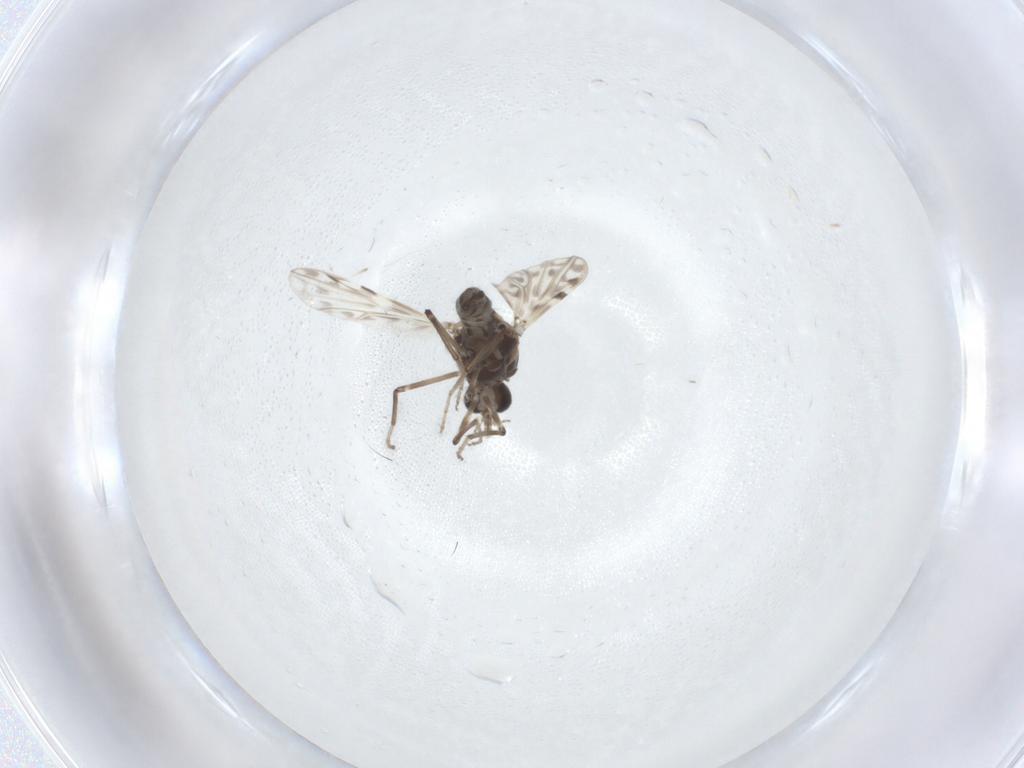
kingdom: Animalia
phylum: Arthropoda
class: Insecta
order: Diptera
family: Ceratopogonidae
